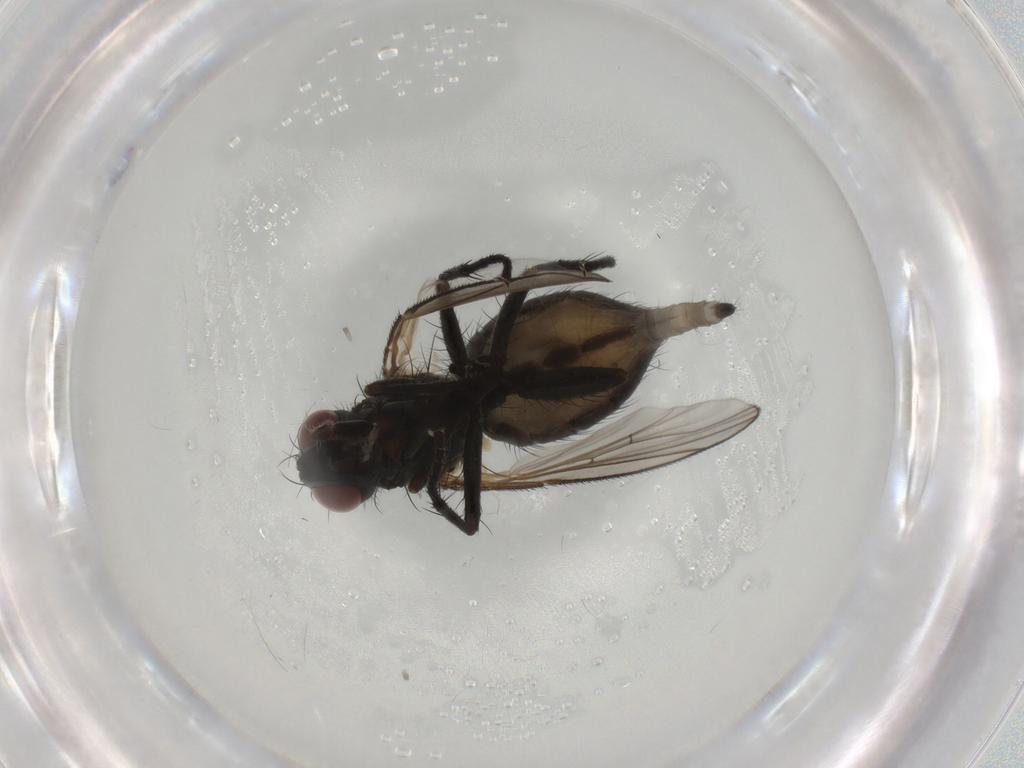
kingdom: Animalia
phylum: Arthropoda
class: Insecta
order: Diptera
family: Muscidae
